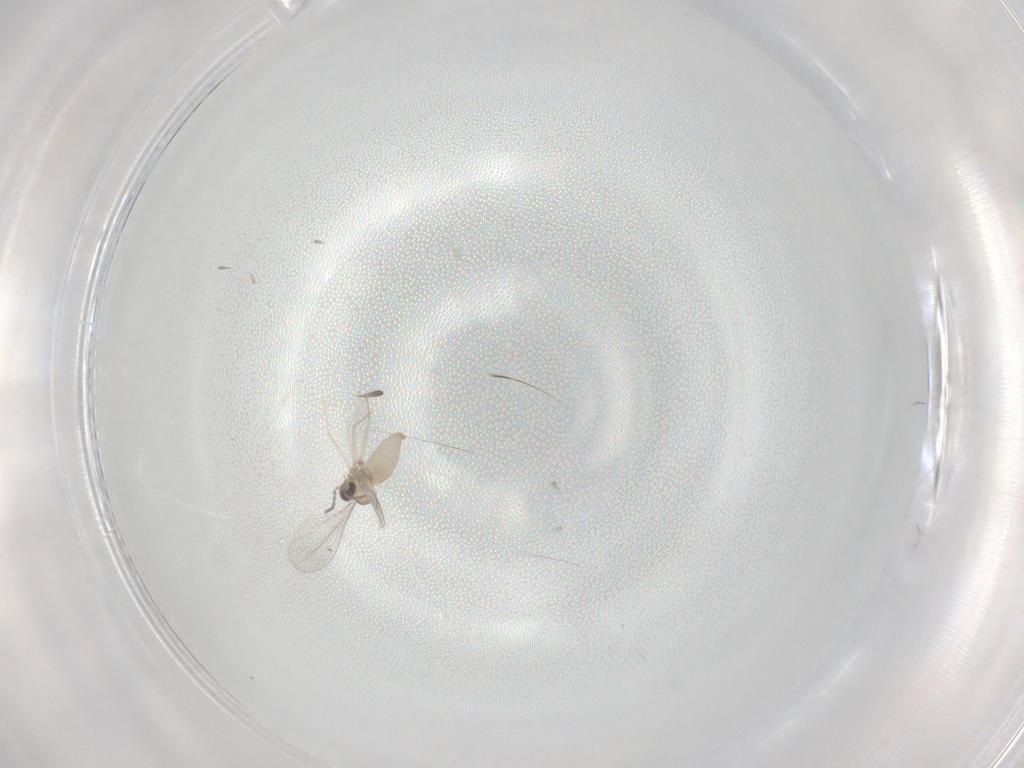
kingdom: Animalia
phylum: Arthropoda
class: Insecta
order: Diptera
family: Cecidomyiidae
